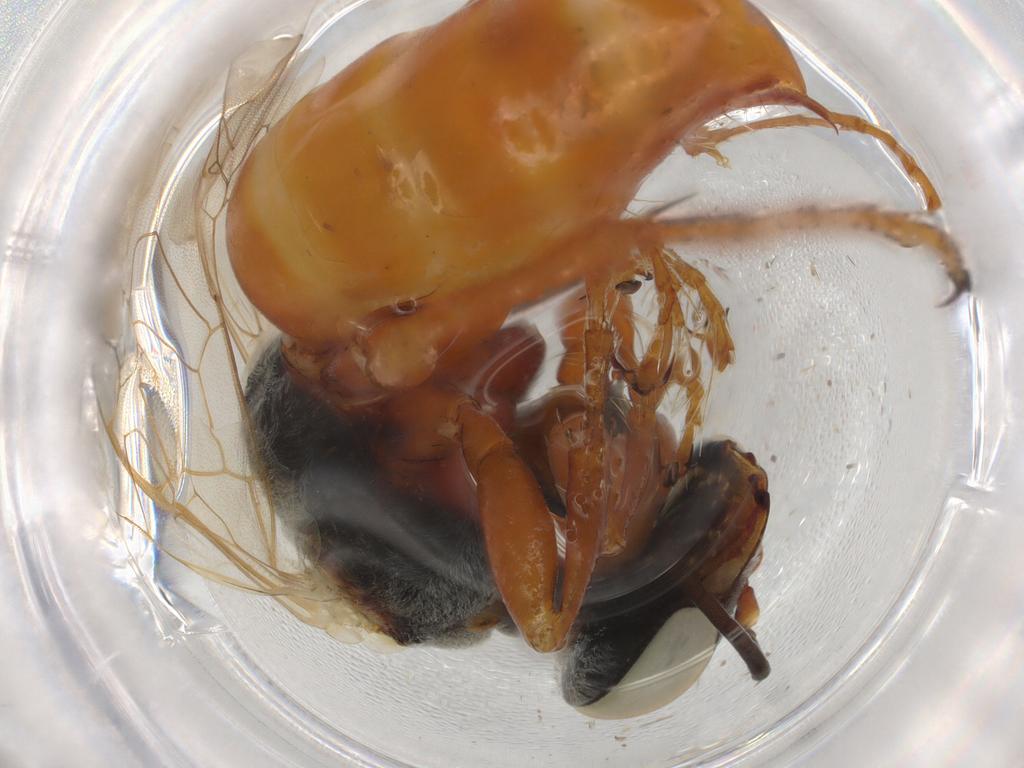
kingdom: Animalia
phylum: Arthropoda
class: Insecta
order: Hymenoptera
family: Crabronidae
